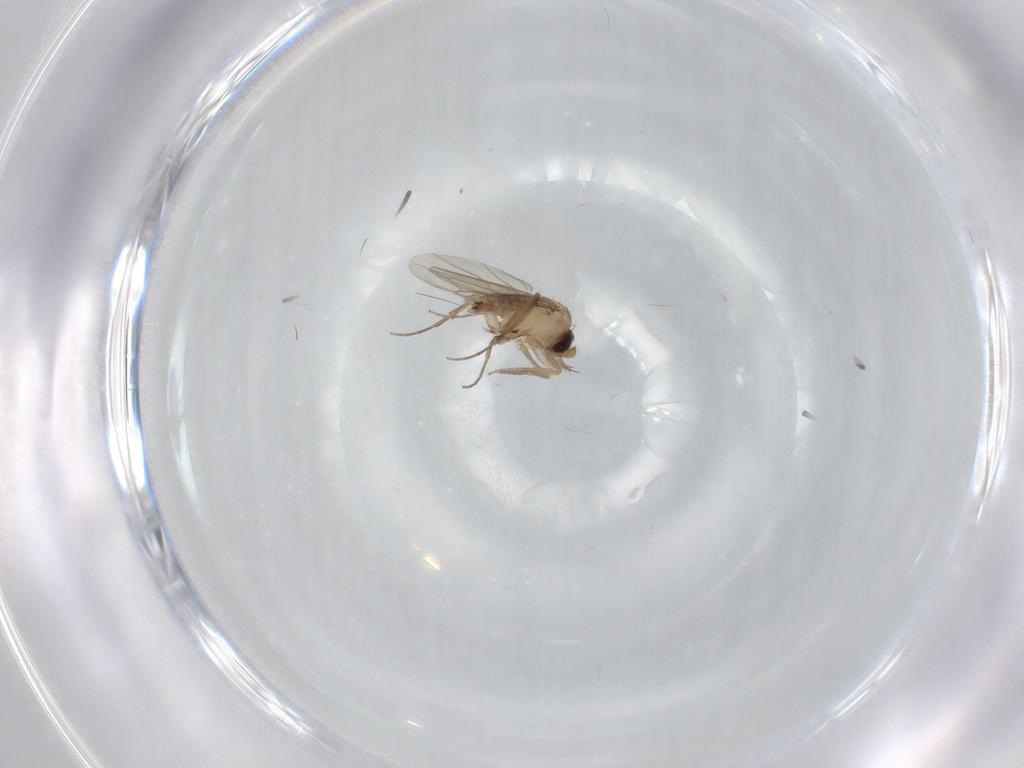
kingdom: Animalia
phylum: Arthropoda
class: Insecta
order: Diptera
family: Phoridae
